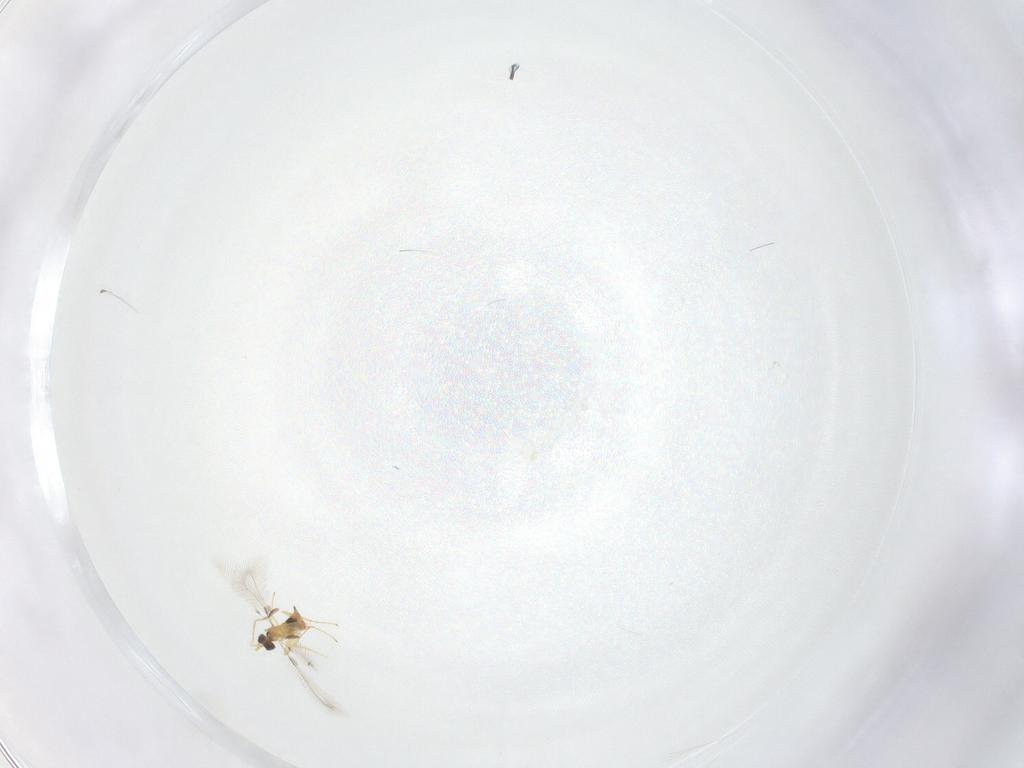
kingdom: Animalia
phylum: Arthropoda
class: Insecta
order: Hymenoptera
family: Mymaridae
